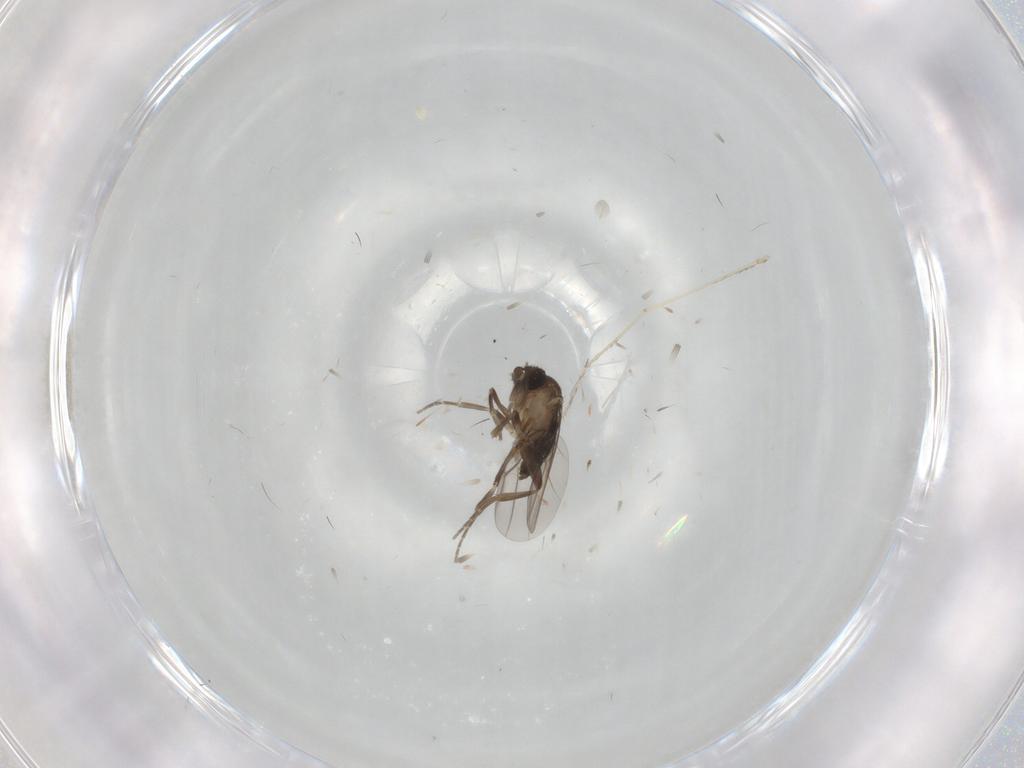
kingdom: Animalia
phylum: Arthropoda
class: Insecta
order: Diptera
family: Cecidomyiidae
